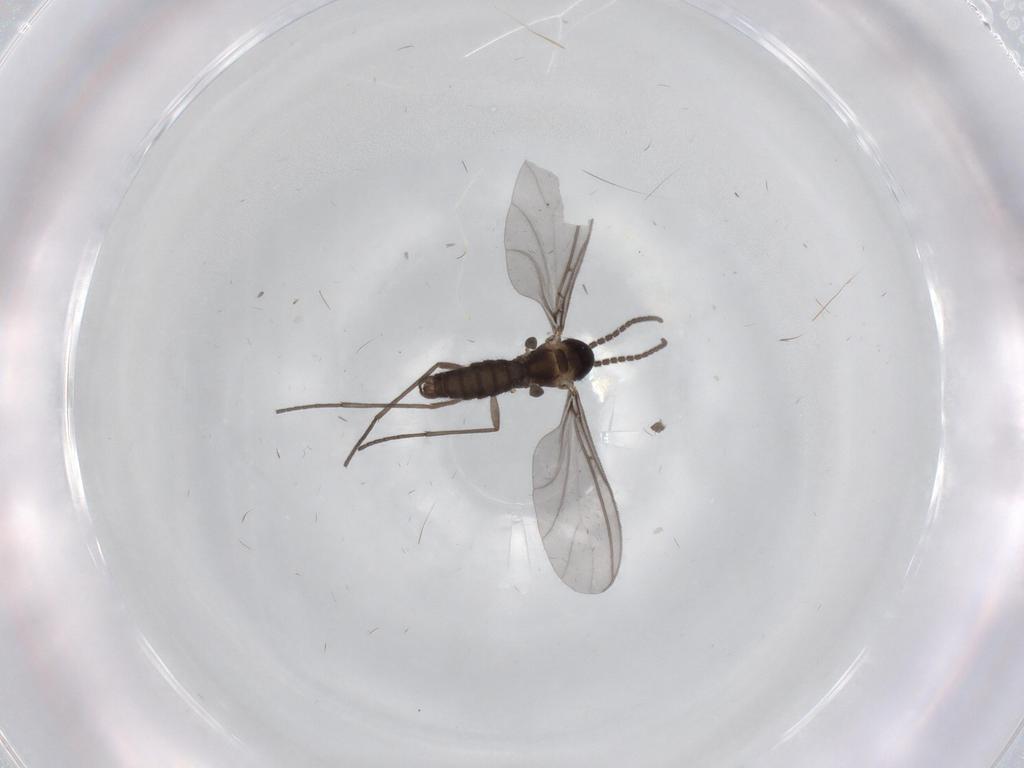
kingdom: Animalia
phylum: Arthropoda
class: Insecta
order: Diptera
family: Sciaridae
